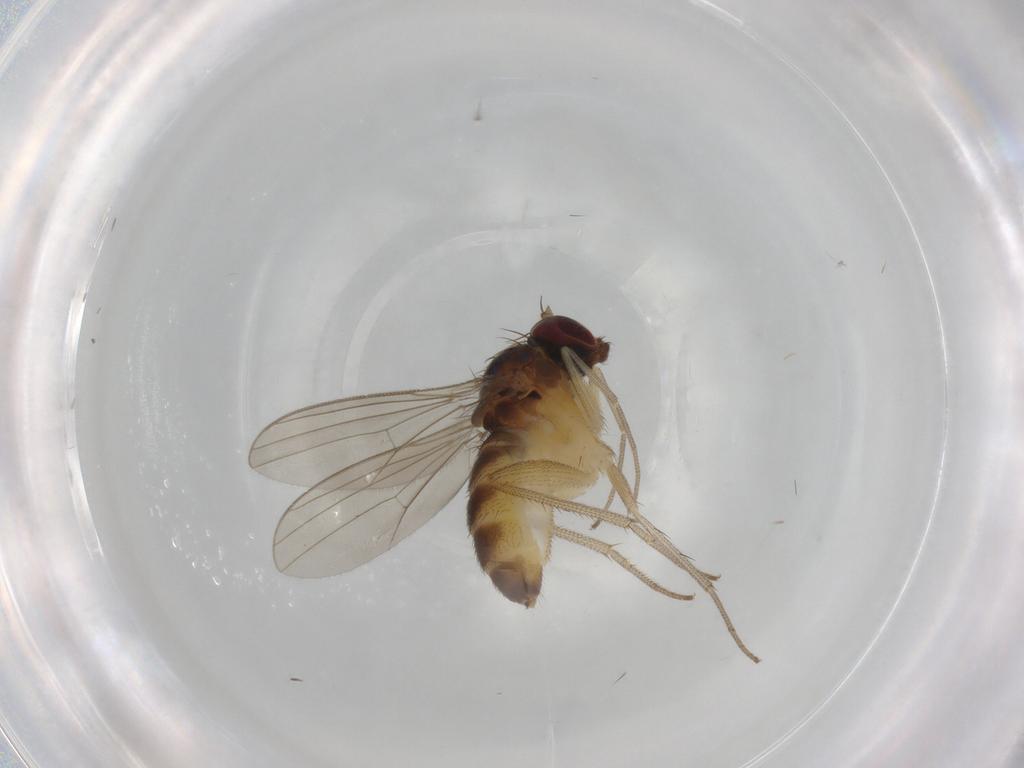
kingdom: Animalia
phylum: Arthropoda
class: Insecta
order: Diptera
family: Dolichopodidae
